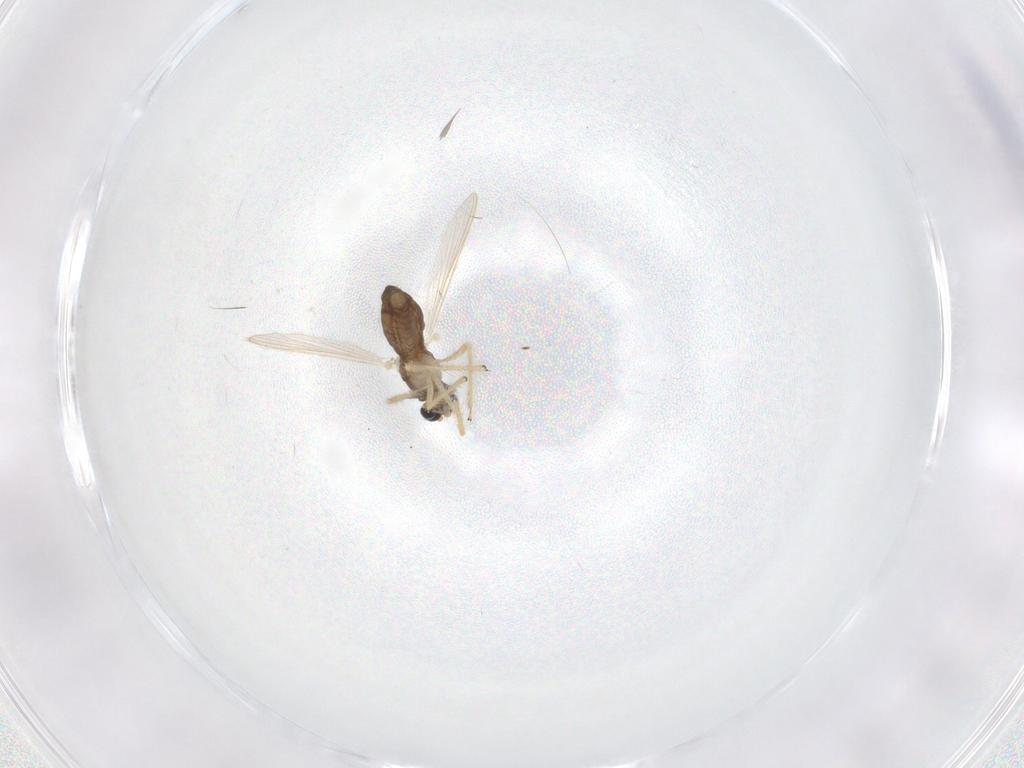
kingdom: Animalia
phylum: Arthropoda
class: Insecta
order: Diptera
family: Chironomidae
